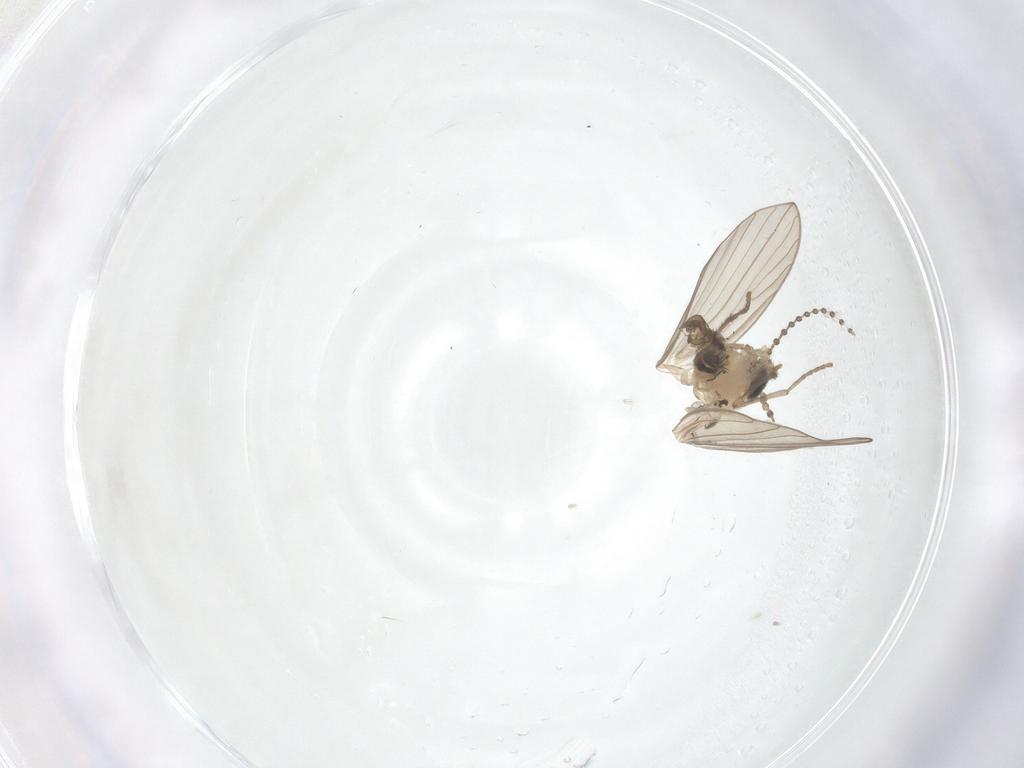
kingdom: Animalia
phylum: Arthropoda
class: Insecta
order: Diptera
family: Psychodidae
